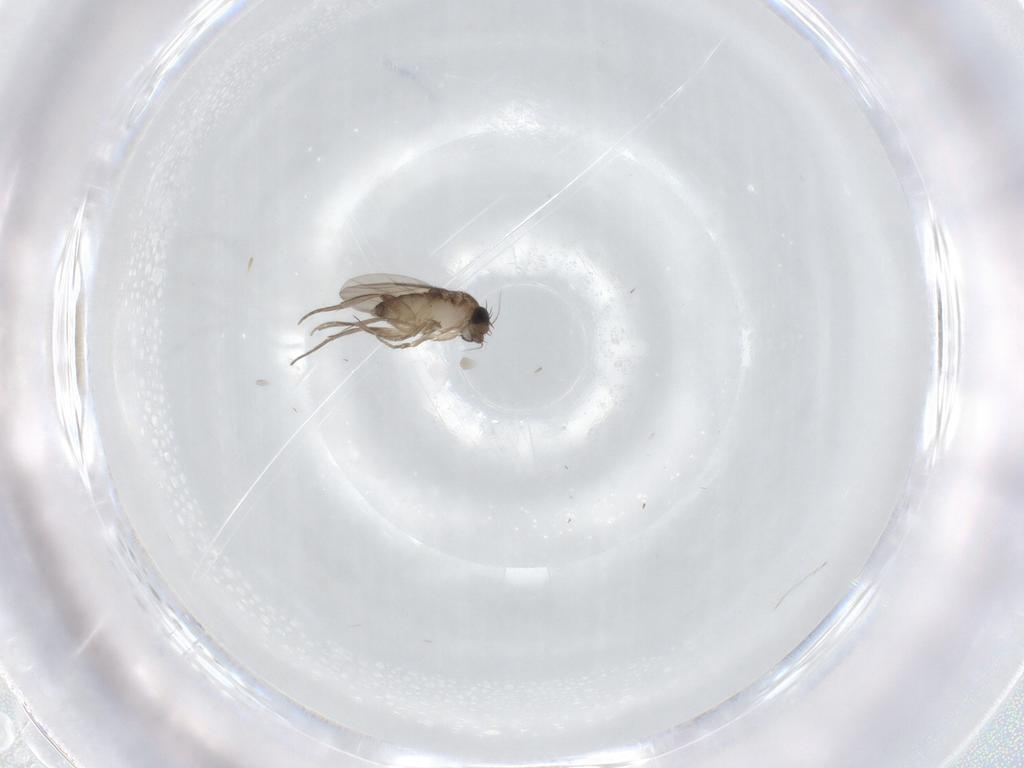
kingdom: Animalia
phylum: Arthropoda
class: Insecta
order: Diptera
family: Phoridae
